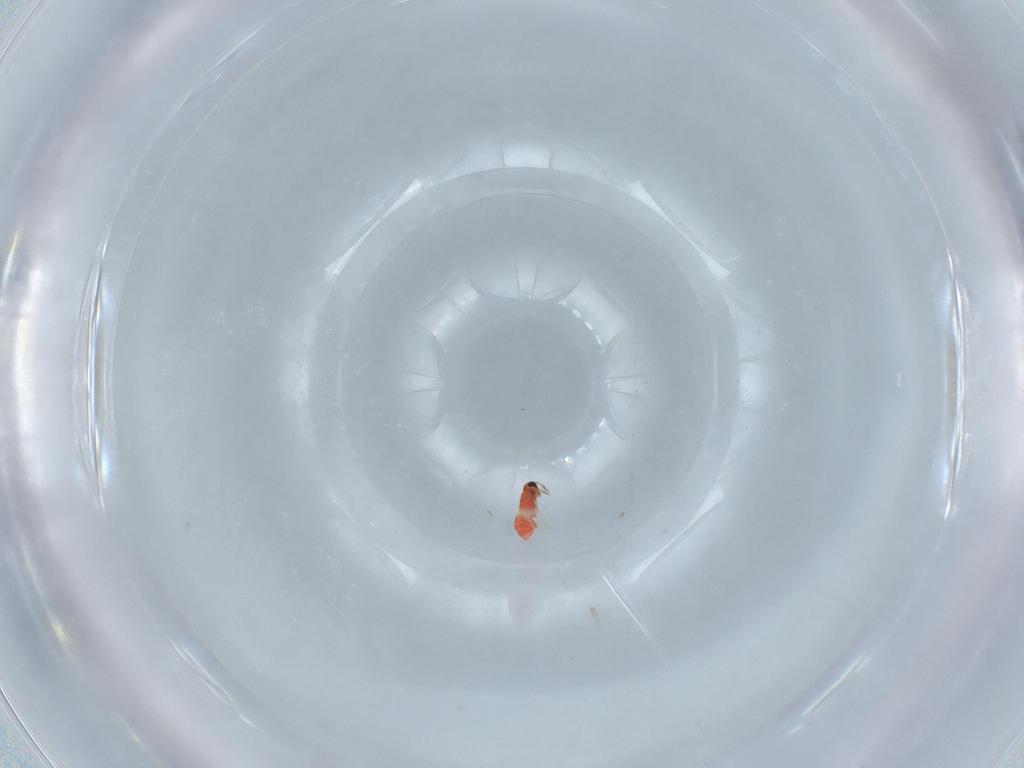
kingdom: Animalia
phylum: Arthropoda
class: Insecta
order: Hymenoptera
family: Trichogrammatidae
